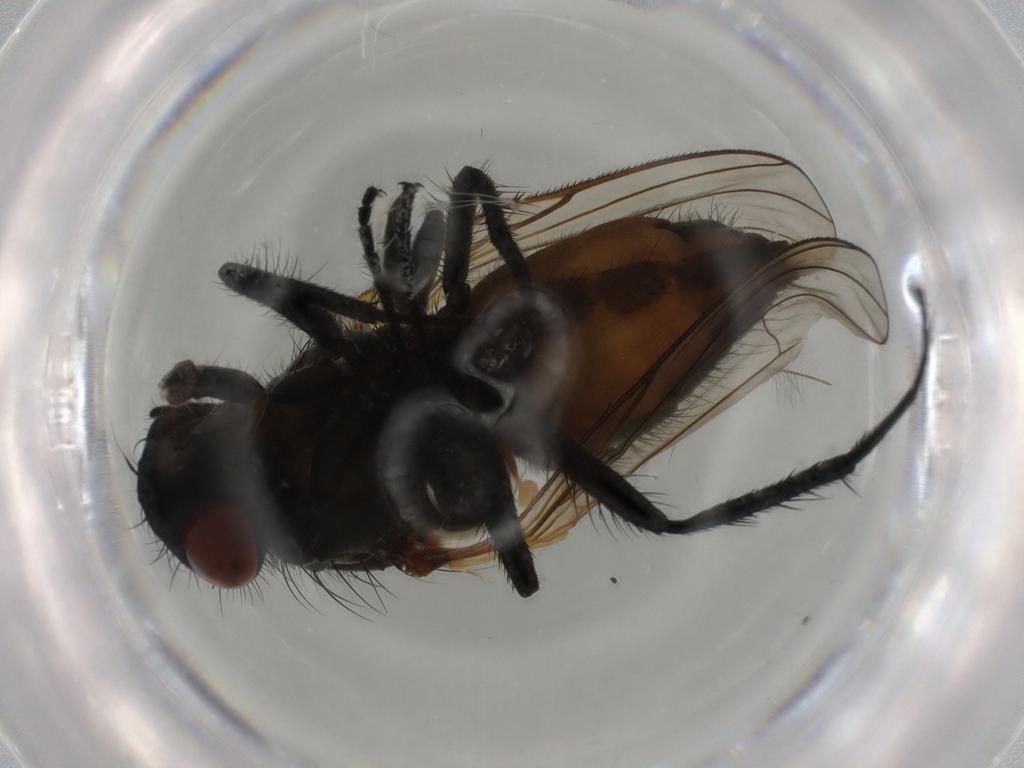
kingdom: Animalia
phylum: Arthropoda
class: Insecta
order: Diptera
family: Anthomyiidae
